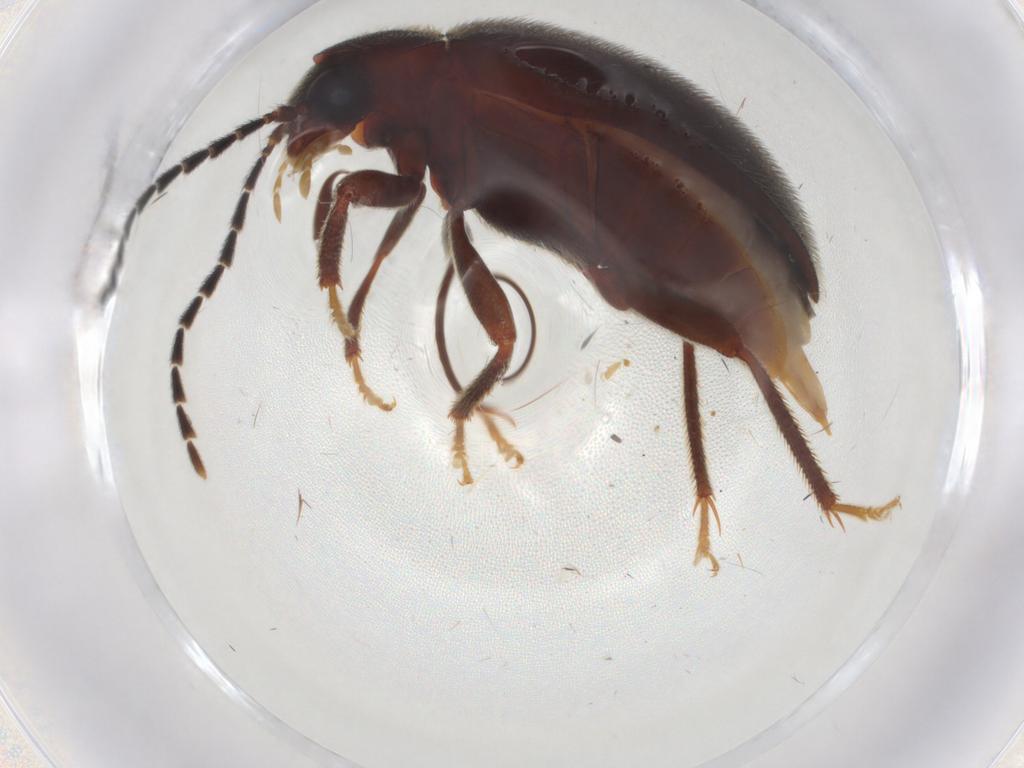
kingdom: Animalia
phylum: Arthropoda
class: Insecta
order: Coleoptera
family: Ptilodactylidae
